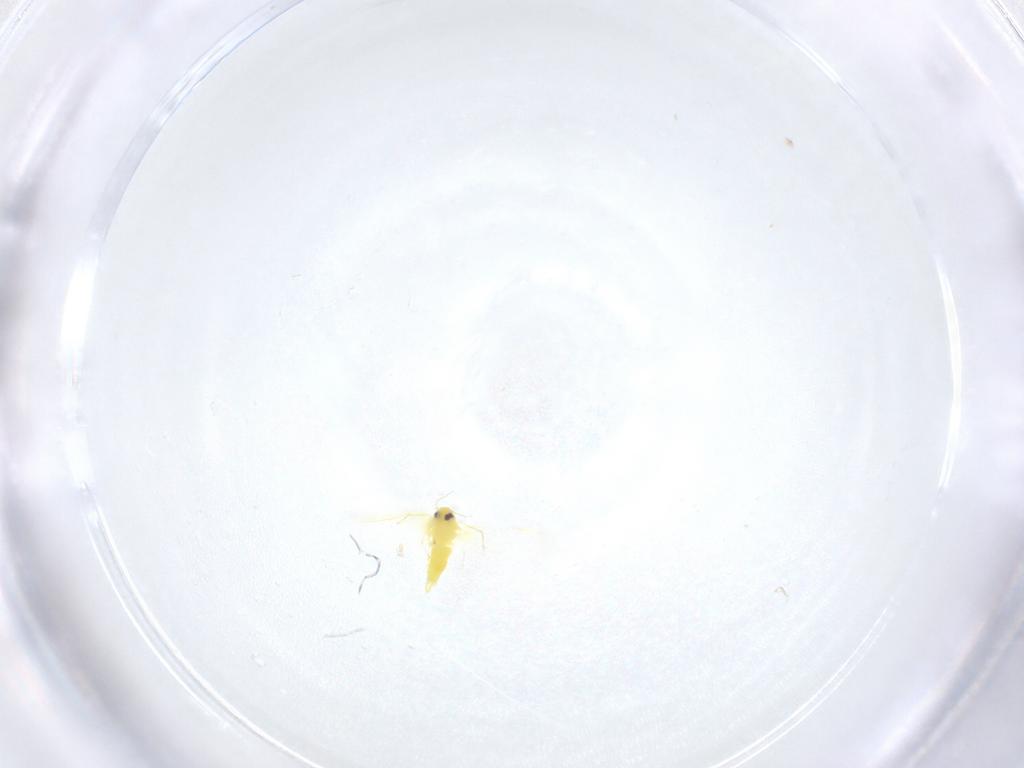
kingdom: Animalia
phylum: Arthropoda
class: Insecta
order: Hemiptera
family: Aleyrodidae
